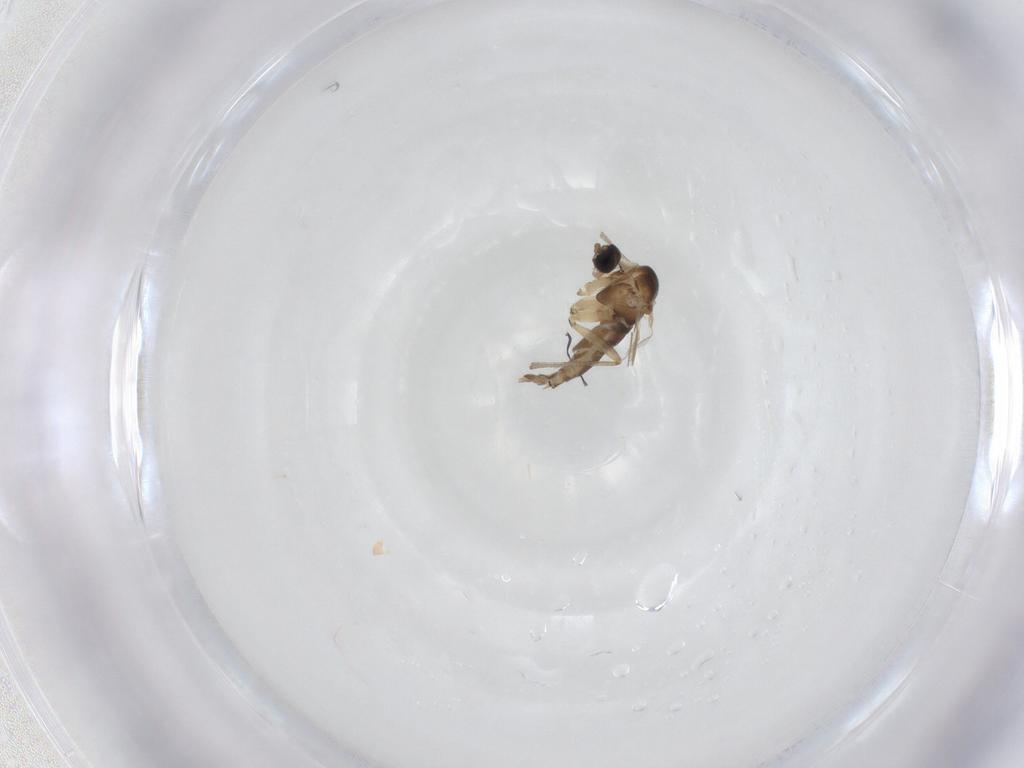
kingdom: Animalia
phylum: Arthropoda
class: Insecta
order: Diptera
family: Sciaridae
